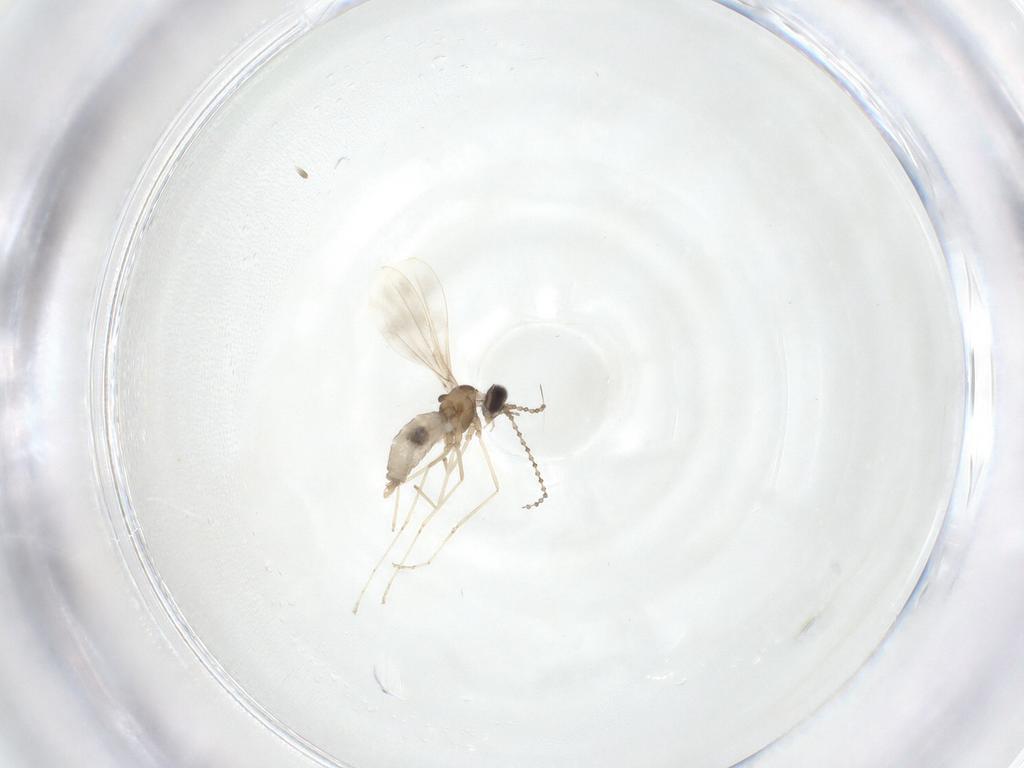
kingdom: Animalia
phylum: Arthropoda
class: Insecta
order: Diptera
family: Cecidomyiidae
